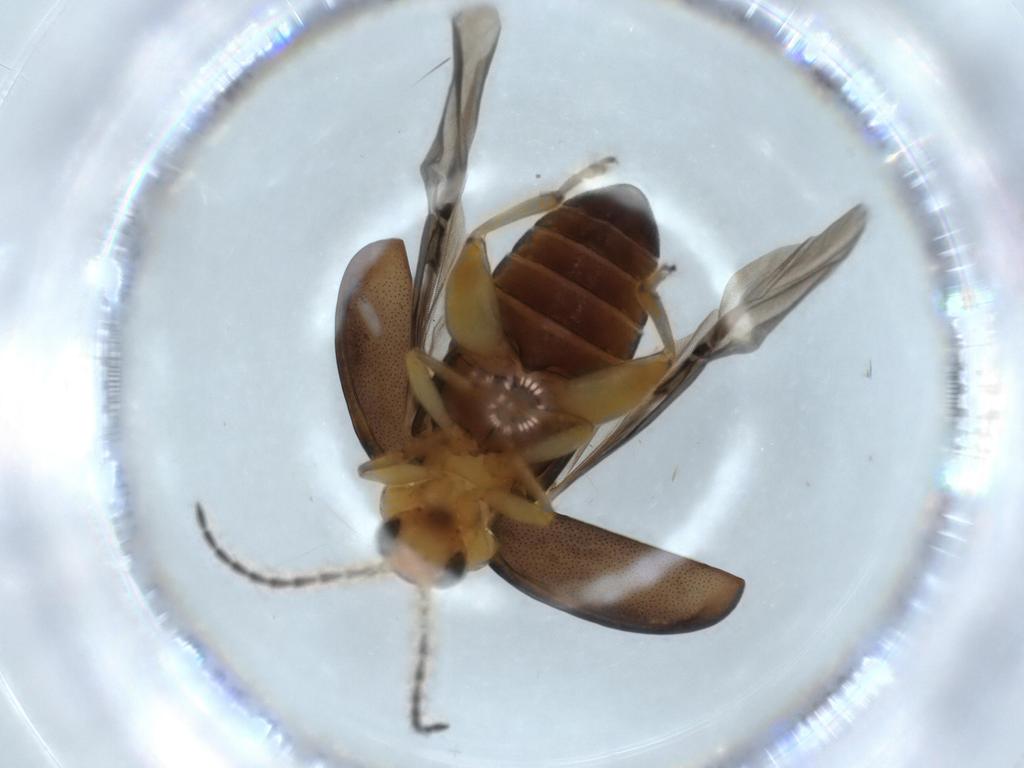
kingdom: Animalia
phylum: Arthropoda
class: Insecta
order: Coleoptera
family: Chrysomelidae
